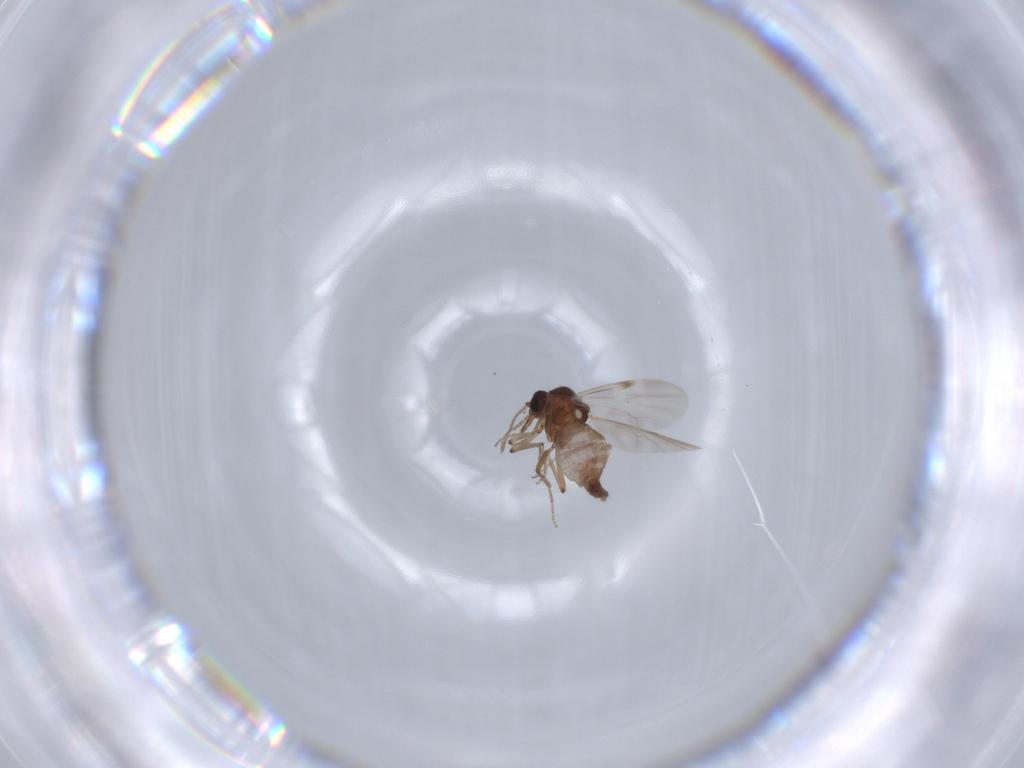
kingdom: Animalia
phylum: Arthropoda
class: Insecta
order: Diptera
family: Ceratopogonidae
